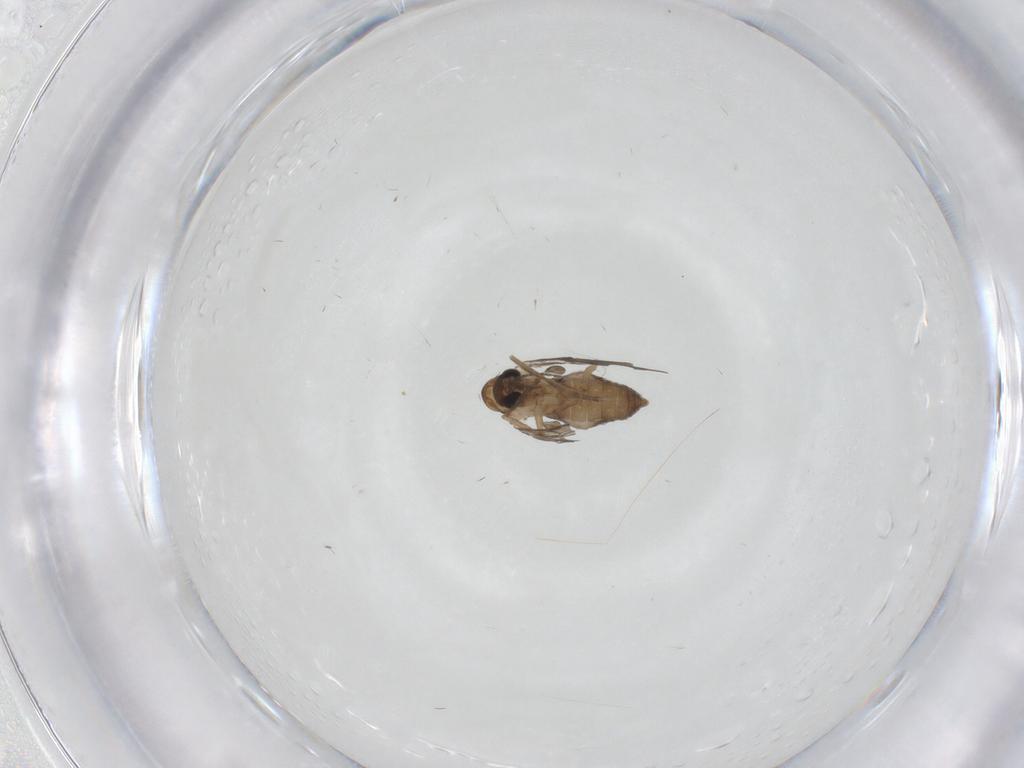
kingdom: Animalia
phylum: Arthropoda
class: Insecta
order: Diptera
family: Psychodidae
